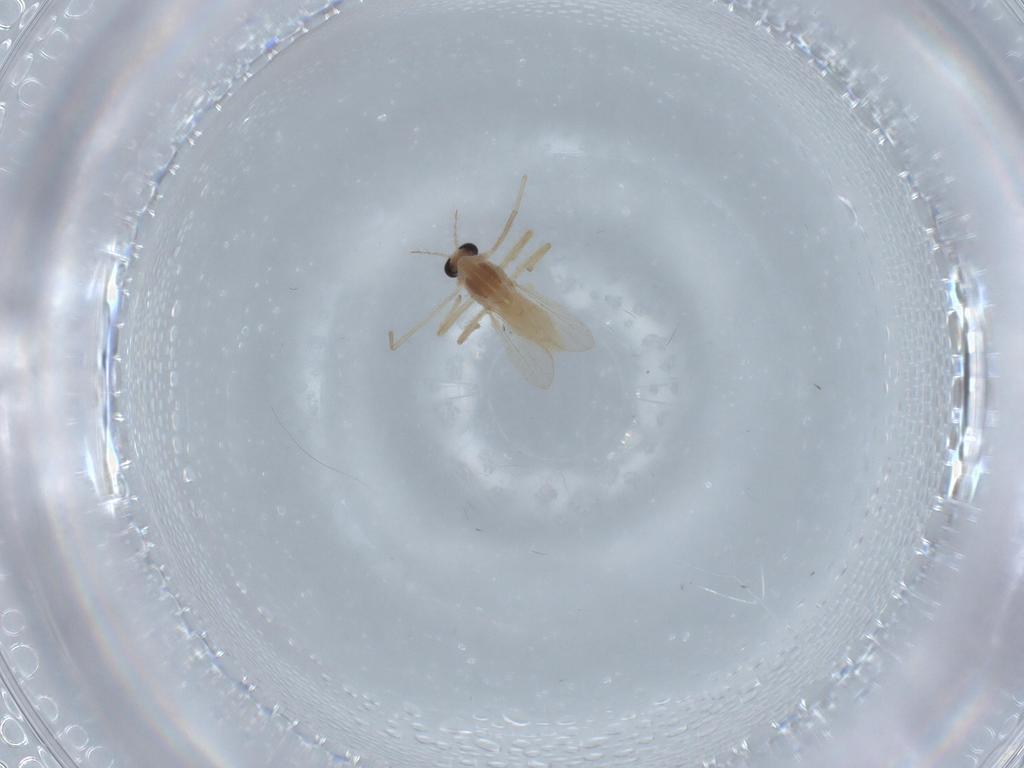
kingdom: Animalia
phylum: Arthropoda
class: Insecta
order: Diptera
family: Chironomidae
